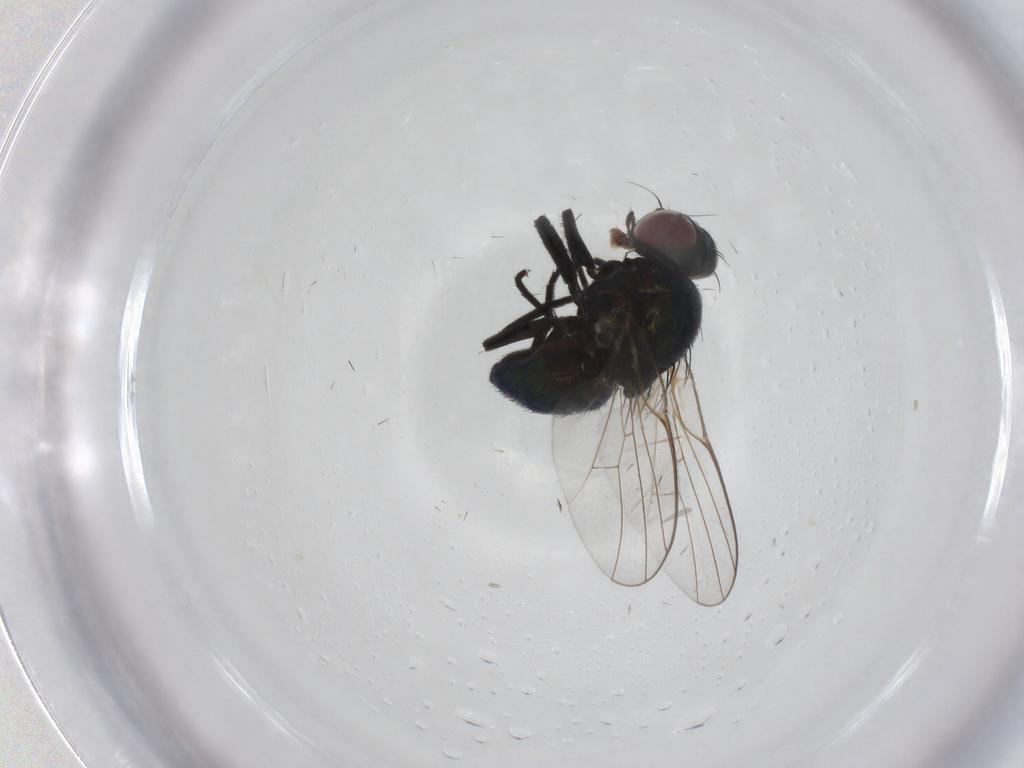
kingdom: Animalia
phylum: Arthropoda
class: Insecta
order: Diptera
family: Agromyzidae
